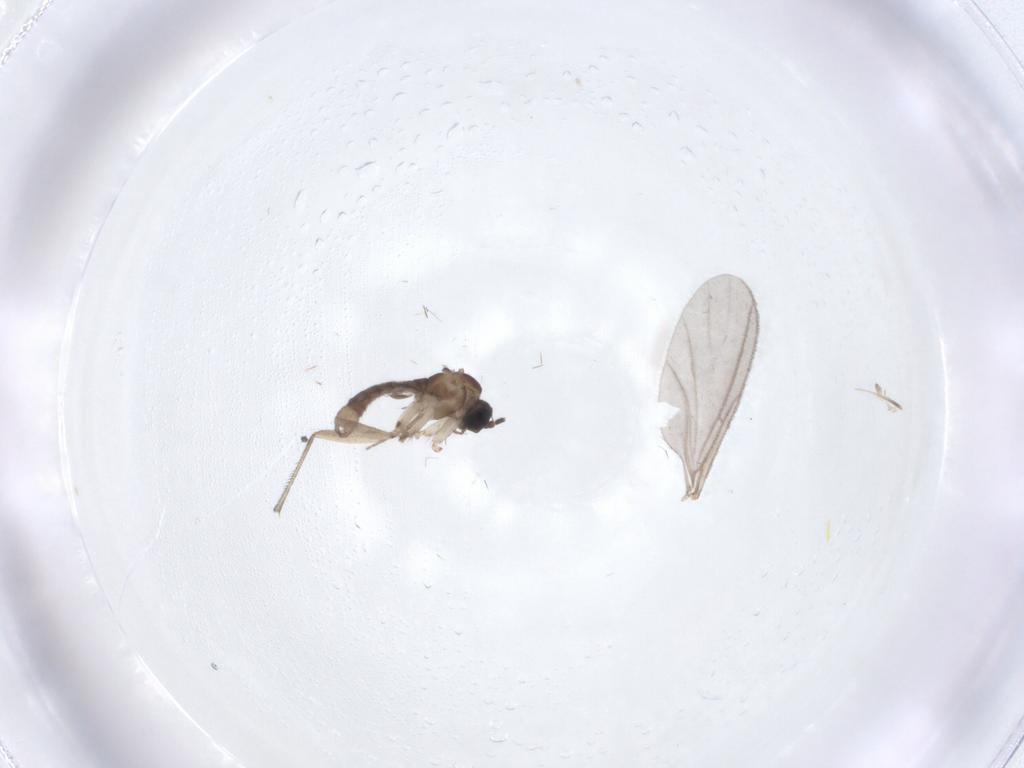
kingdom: Animalia
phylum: Arthropoda
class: Insecta
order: Diptera
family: Sciaridae
